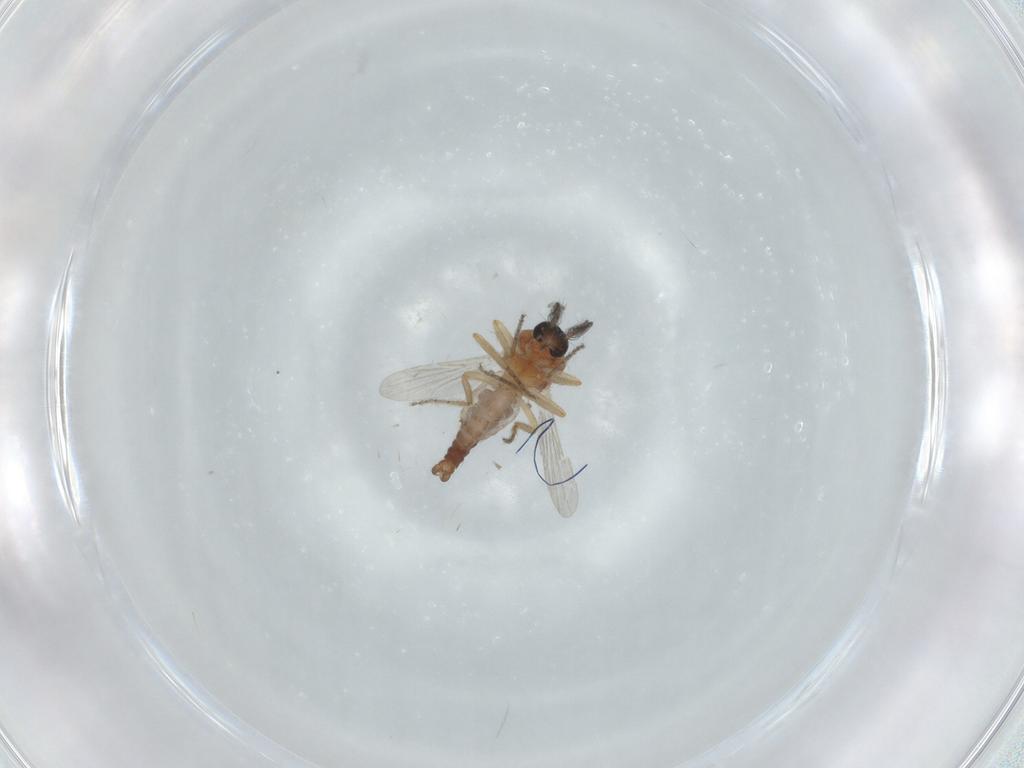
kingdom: Animalia
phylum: Arthropoda
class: Insecta
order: Diptera
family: Ceratopogonidae
